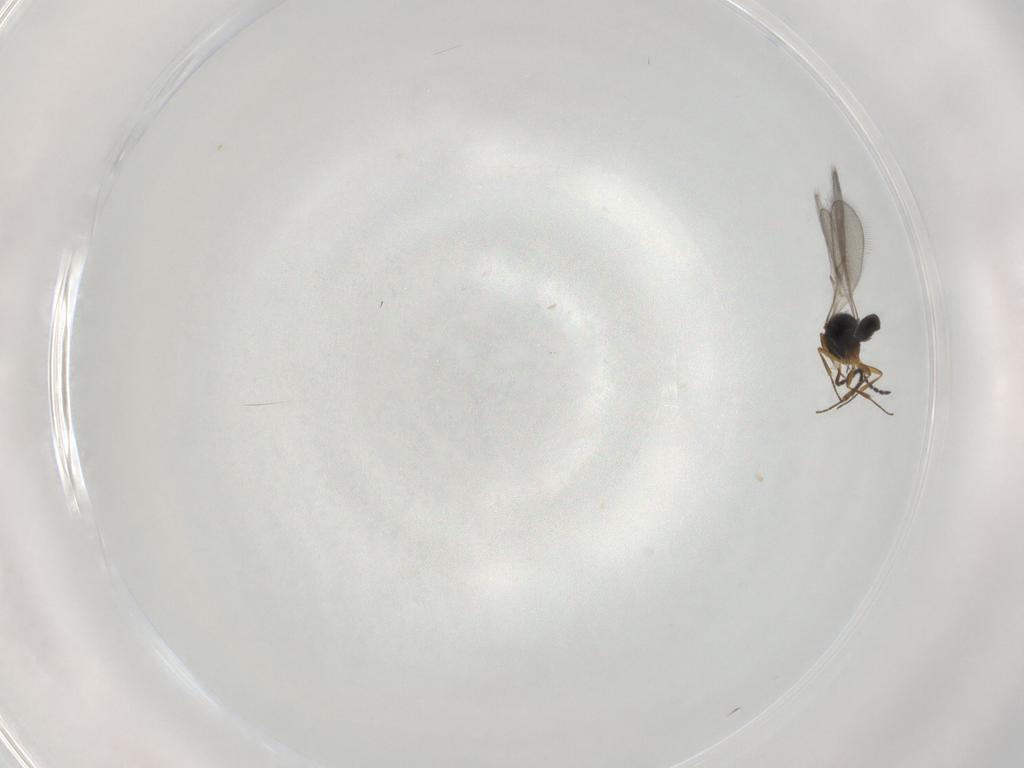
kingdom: Animalia
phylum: Arthropoda
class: Insecta
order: Hymenoptera
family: Scelionidae
